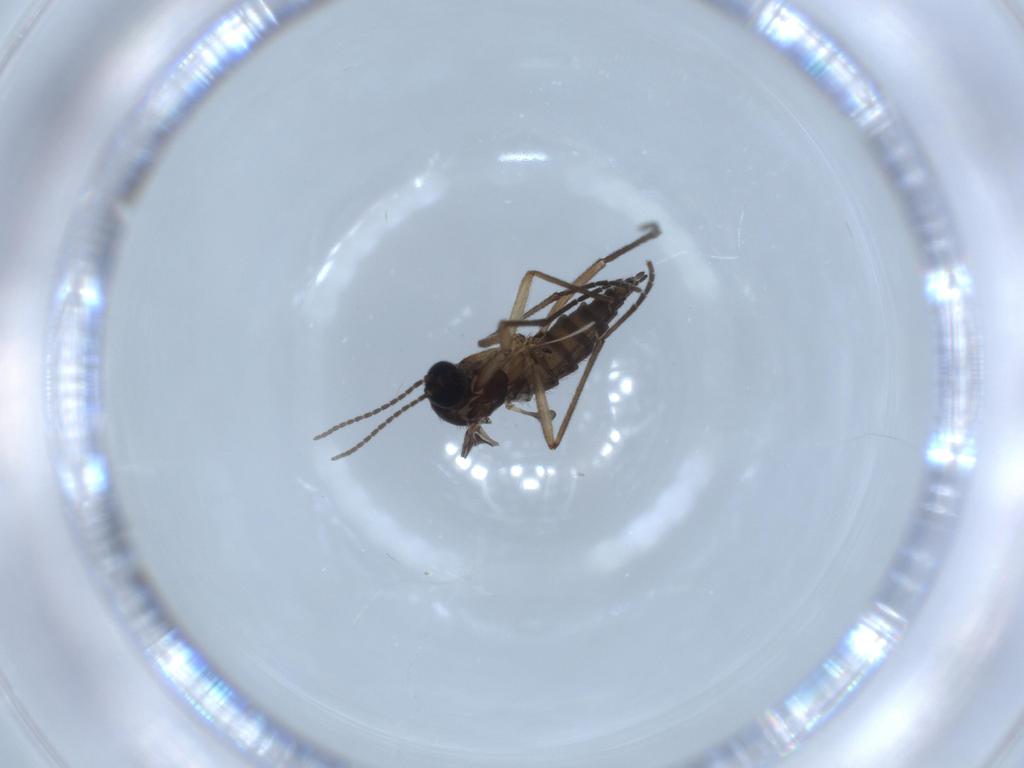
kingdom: Animalia
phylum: Arthropoda
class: Insecta
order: Diptera
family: Sciaridae
